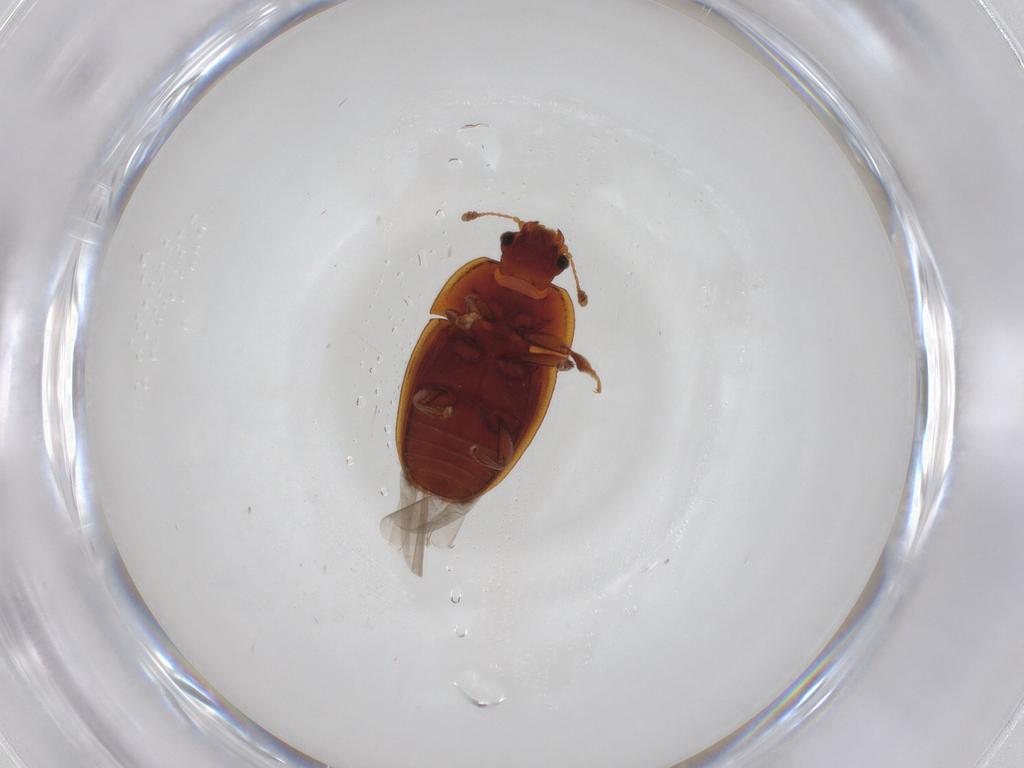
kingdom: Animalia
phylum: Arthropoda
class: Insecta
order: Coleoptera
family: Nitidulidae
